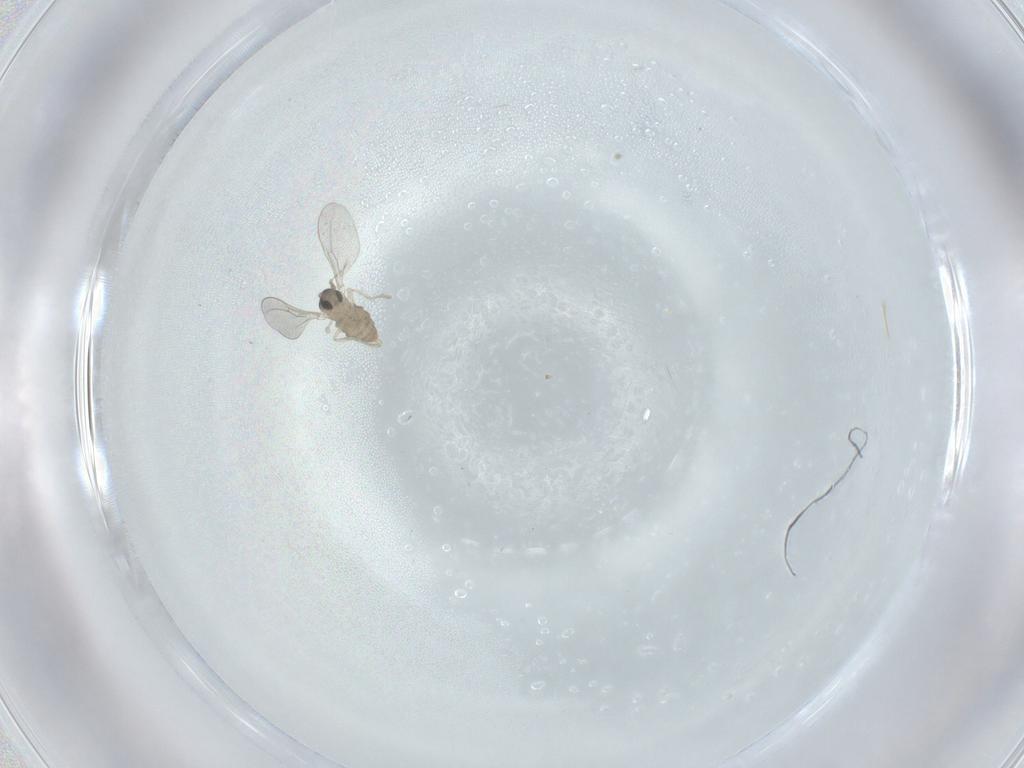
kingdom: Animalia
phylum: Arthropoda
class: Insecta
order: Diptera
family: Cecidomyiidae
